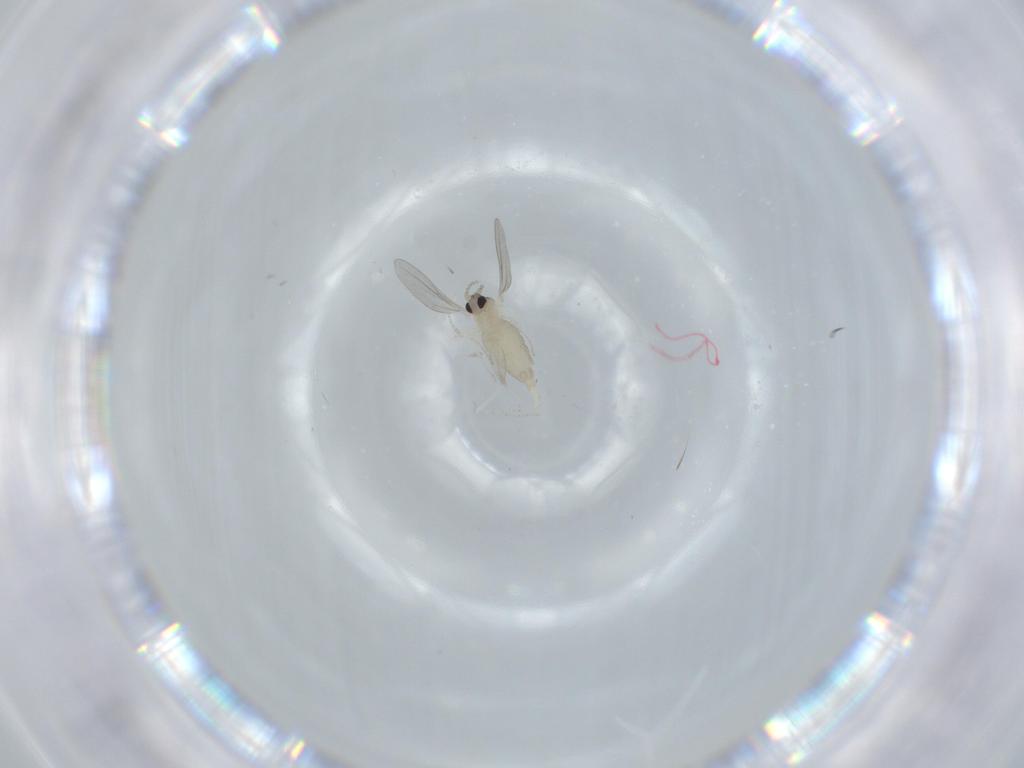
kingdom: Animalia
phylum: Arthropoda
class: Insecta
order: Diptera
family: Cecidomyiidae
